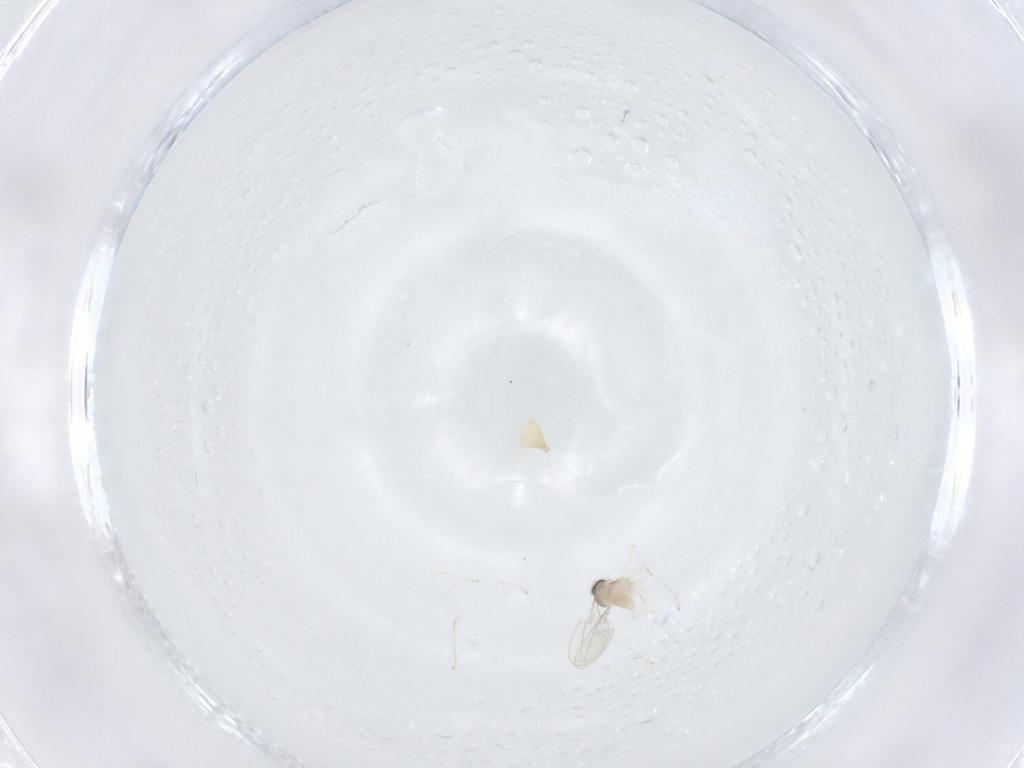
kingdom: Animalia
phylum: Arthropoda
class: Insecta
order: Diptera
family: Cecidomyiidae
